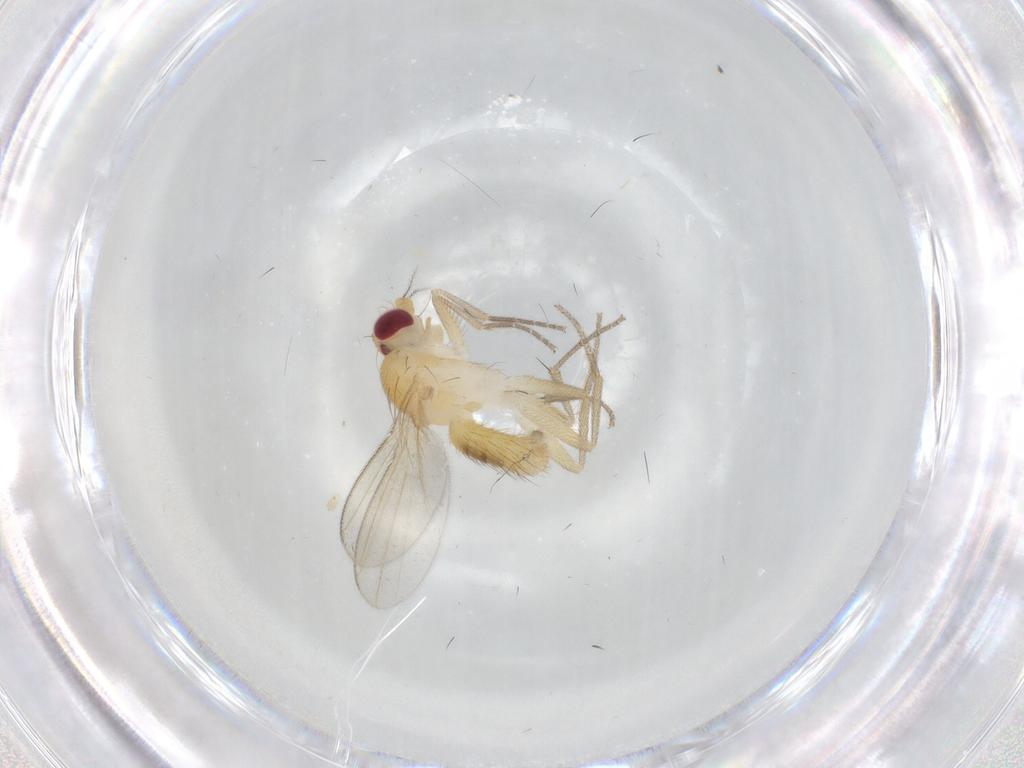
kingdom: Animalia
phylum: Arthropoda
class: Insecta
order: Diptera
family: Clusiidae
